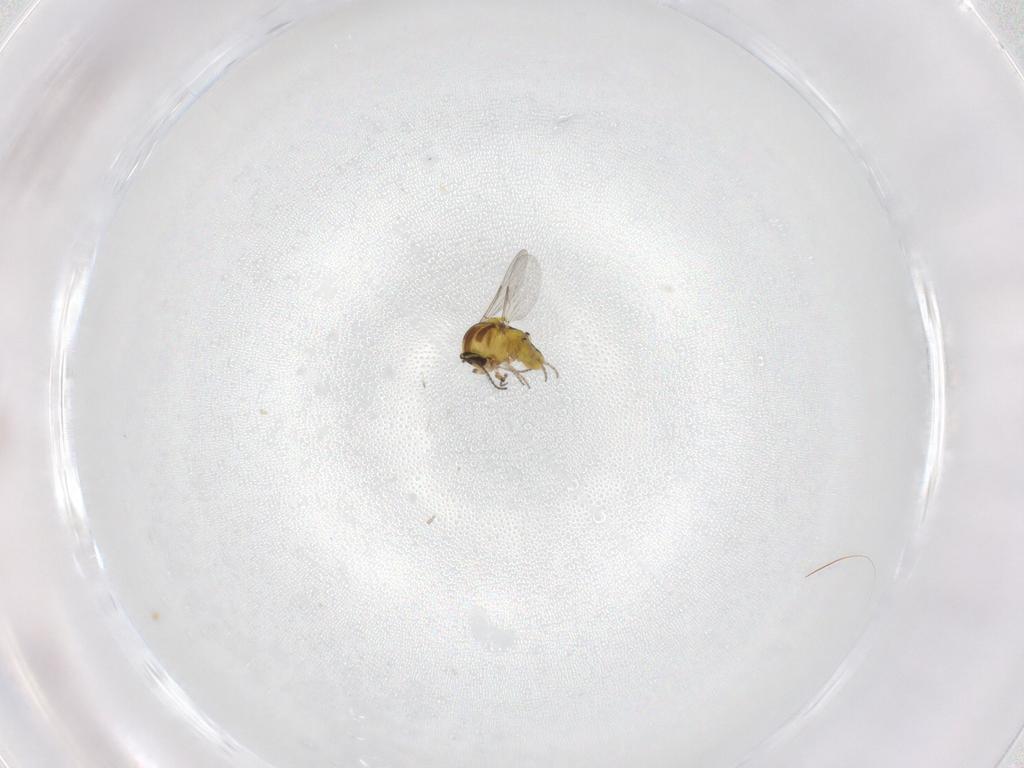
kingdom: Animalia
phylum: Arthropoda
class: Insecta
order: Diptera
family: Ceratopogonidae
